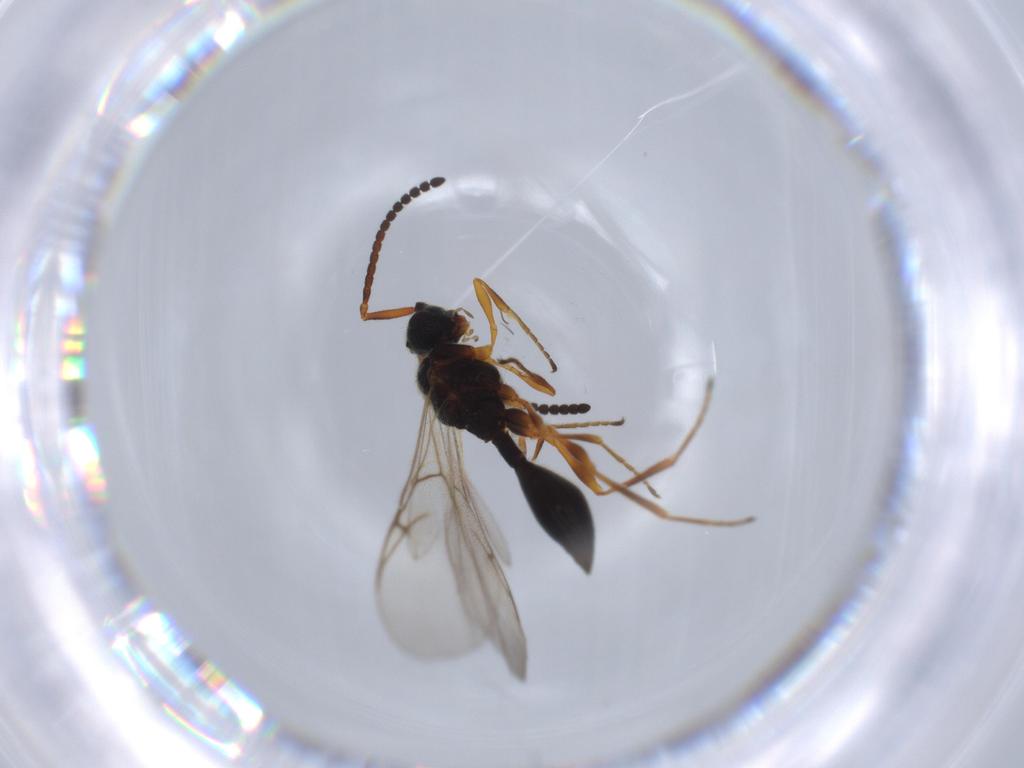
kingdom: Animalia
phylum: Arthropoda
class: Insecta
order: Hymenoptera
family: Diapriidae
